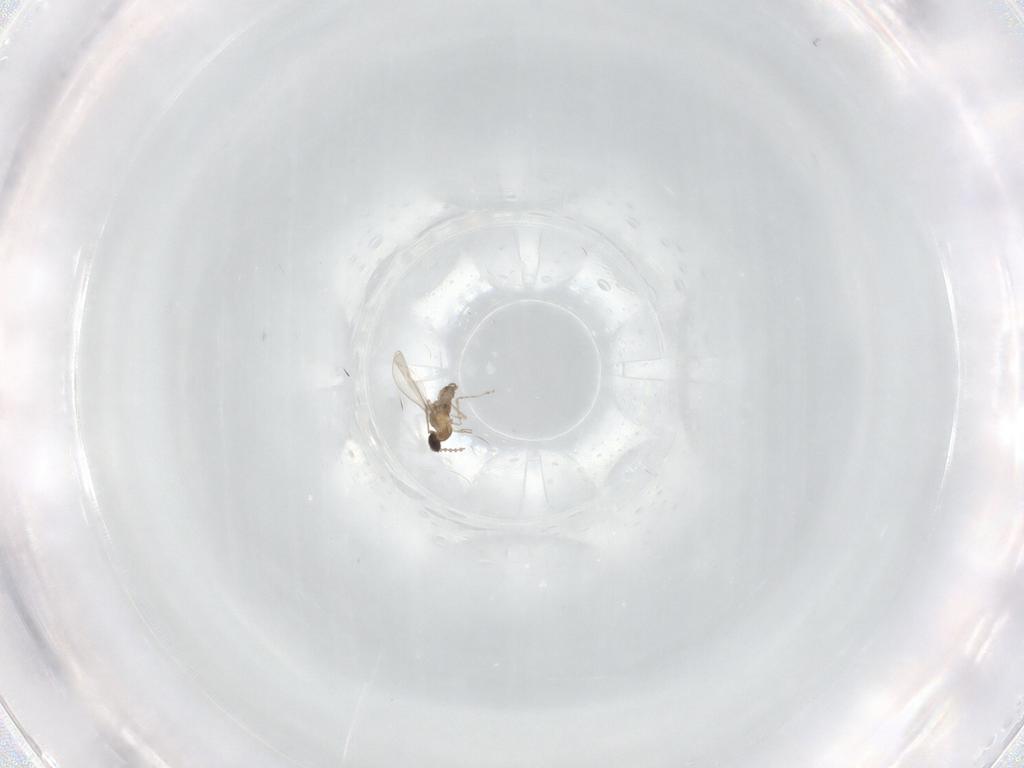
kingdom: Animalia
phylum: Arthropoda
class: Insecta
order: Diptera
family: Cecidomyiidae
